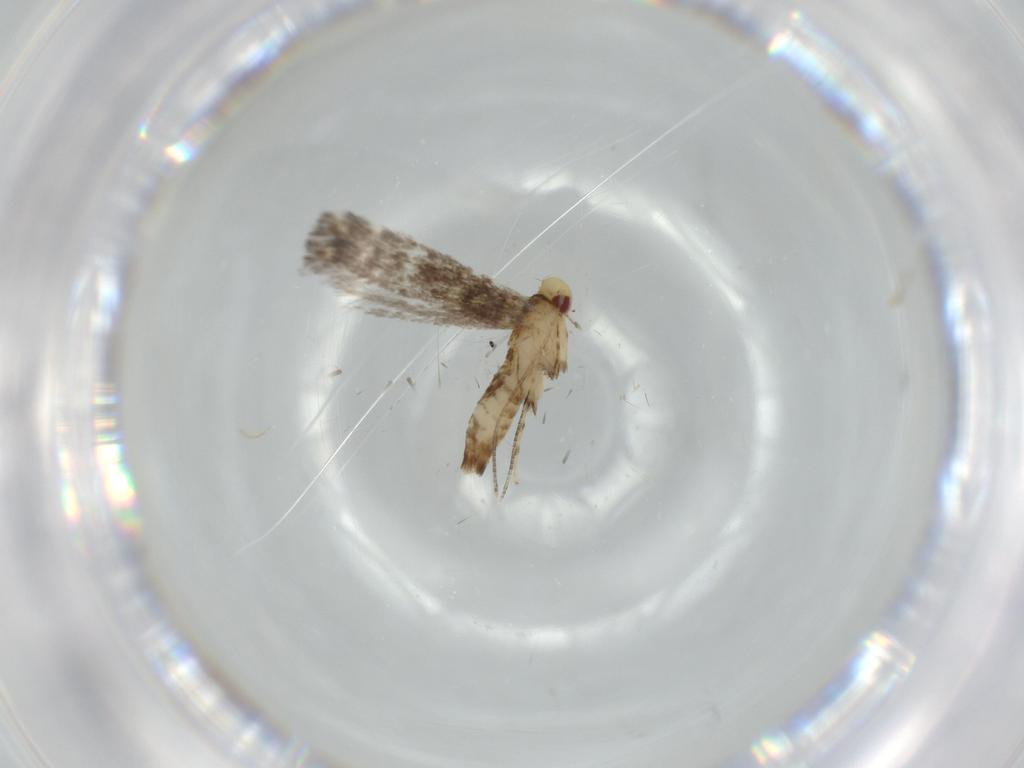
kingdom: Animalia
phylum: Arthropoda
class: Insecta
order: Lepidoptera
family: Gracillariidae
